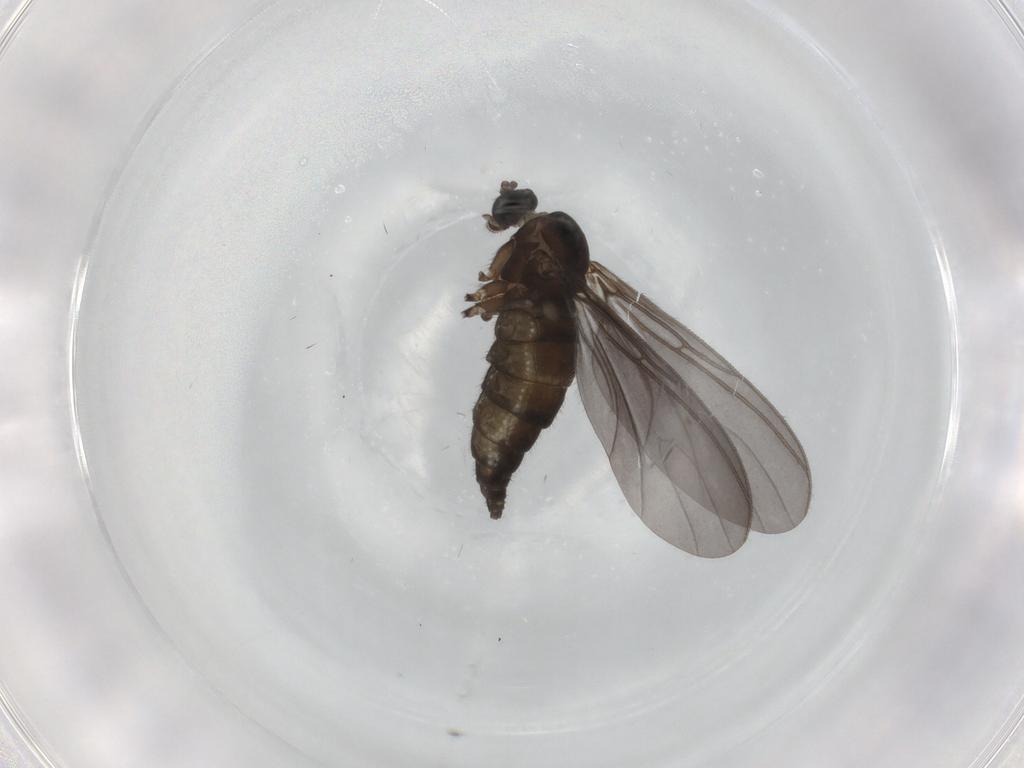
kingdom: Animalia
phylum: Arthropoda
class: Insecta
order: Diptera
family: Sciaridae
